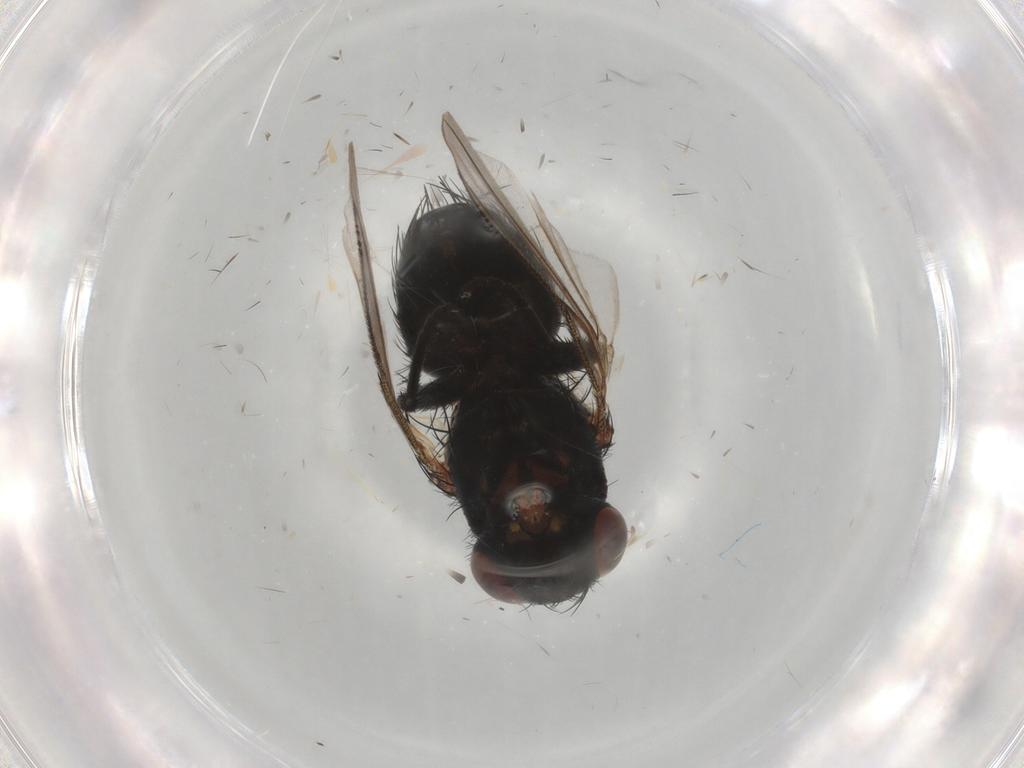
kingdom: Animalia
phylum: Arthropoda
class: Insecta
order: Diptera
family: Tachinidae
